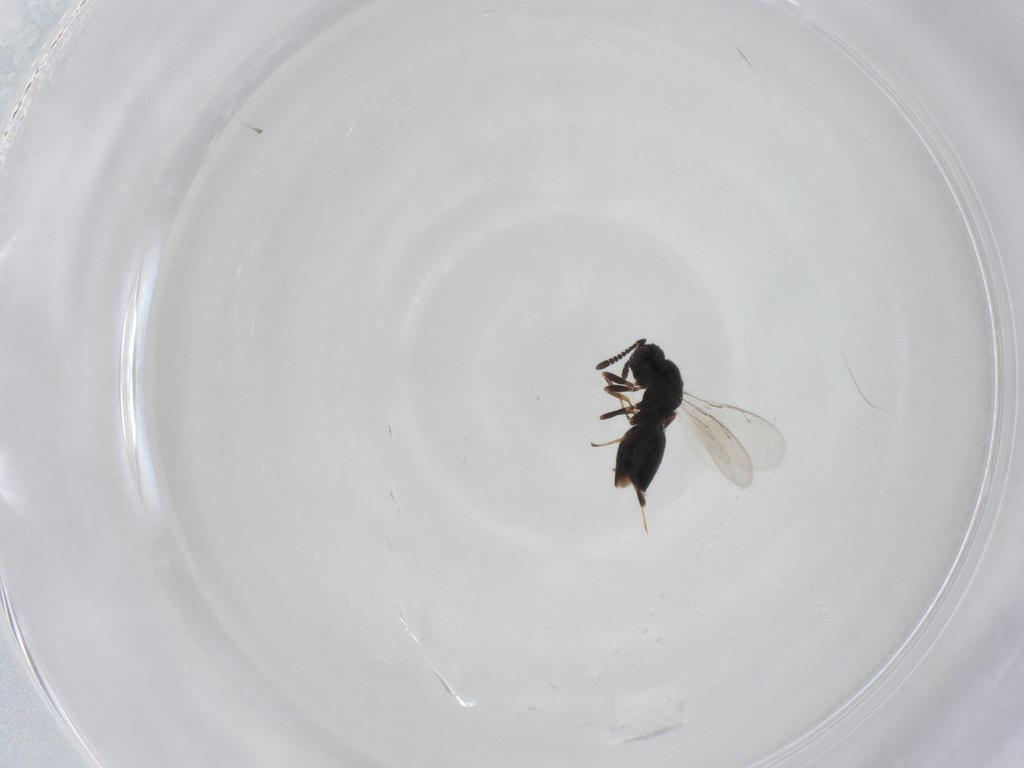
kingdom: Animalia
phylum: Arthropoda
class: Insecta
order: Hymenoptera
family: Pteromalidae
